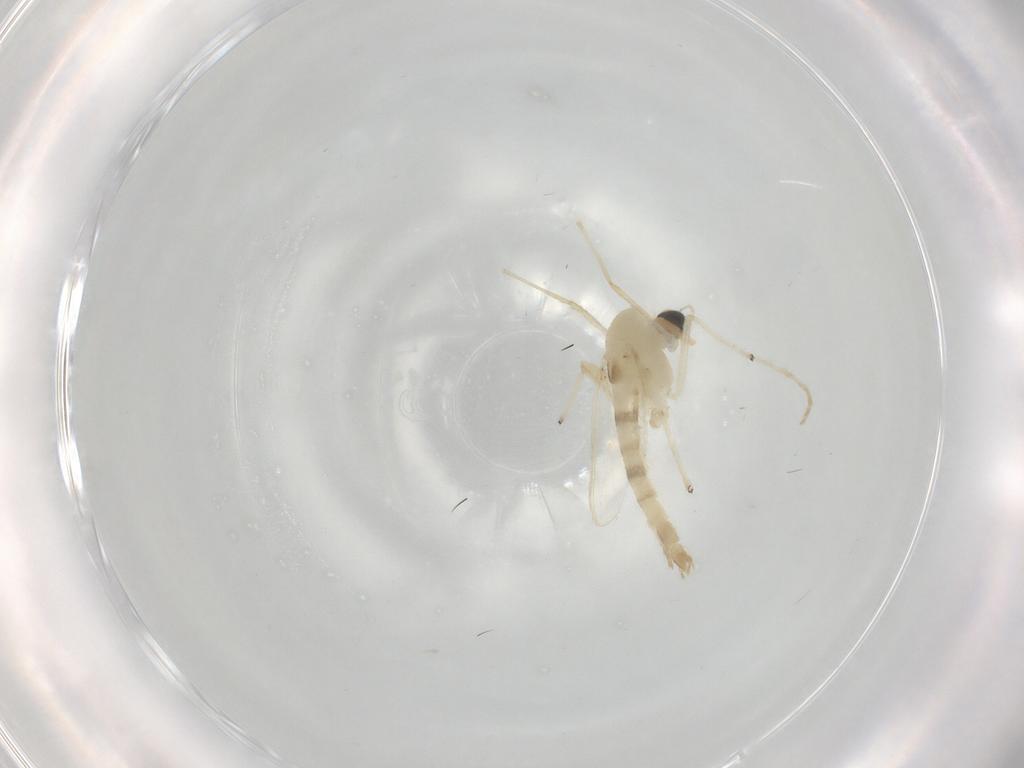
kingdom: Animalia
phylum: Arthropoda
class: Insecta
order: Diptera
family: Chironomidae
